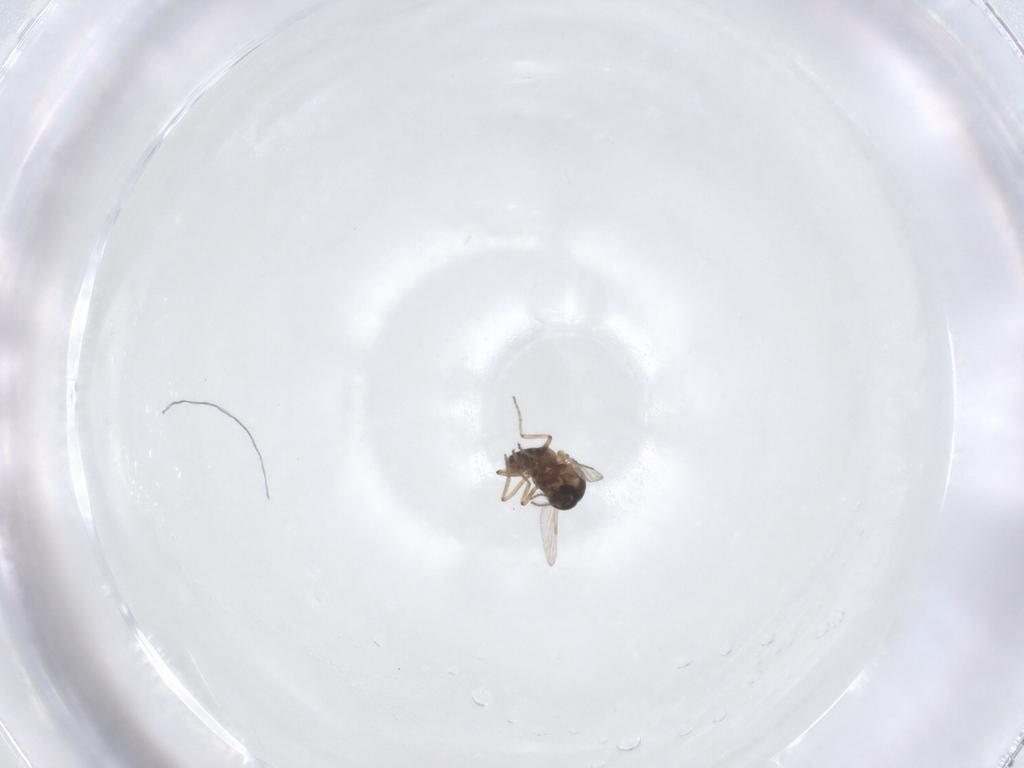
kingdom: Animalia
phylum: Arthropoda
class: Insecta
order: Diptera
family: Ceratopogonidae
